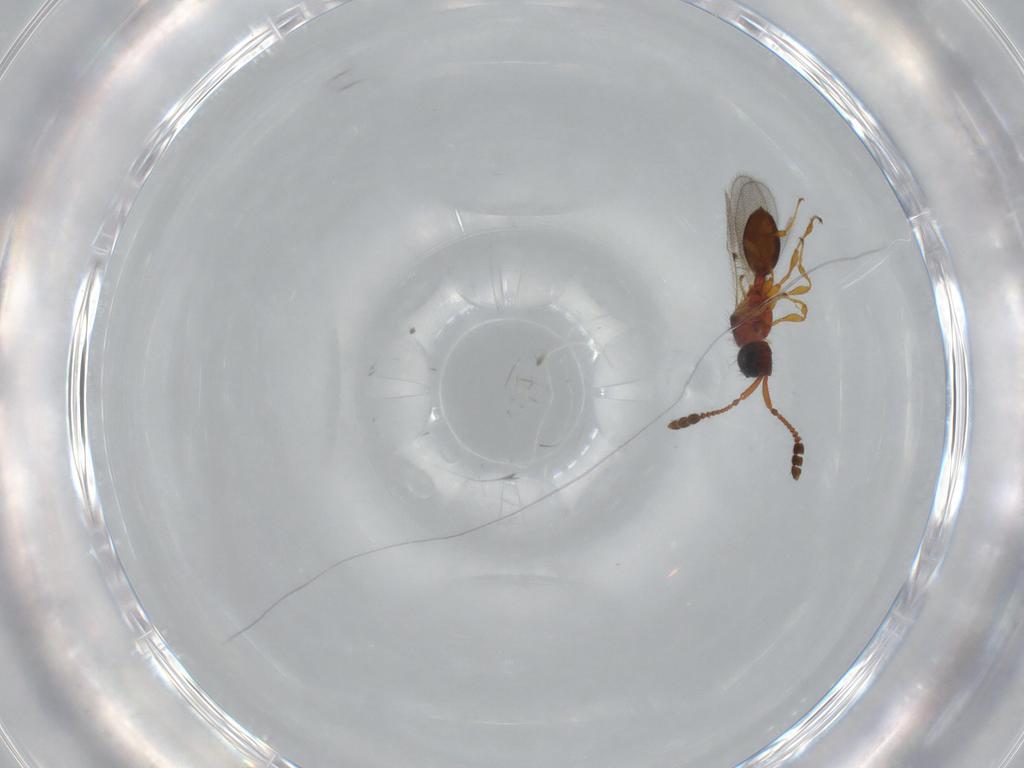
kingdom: Animalia
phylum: Arthropoda
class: Insecta
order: Hymenoptera
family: Diapriidae
